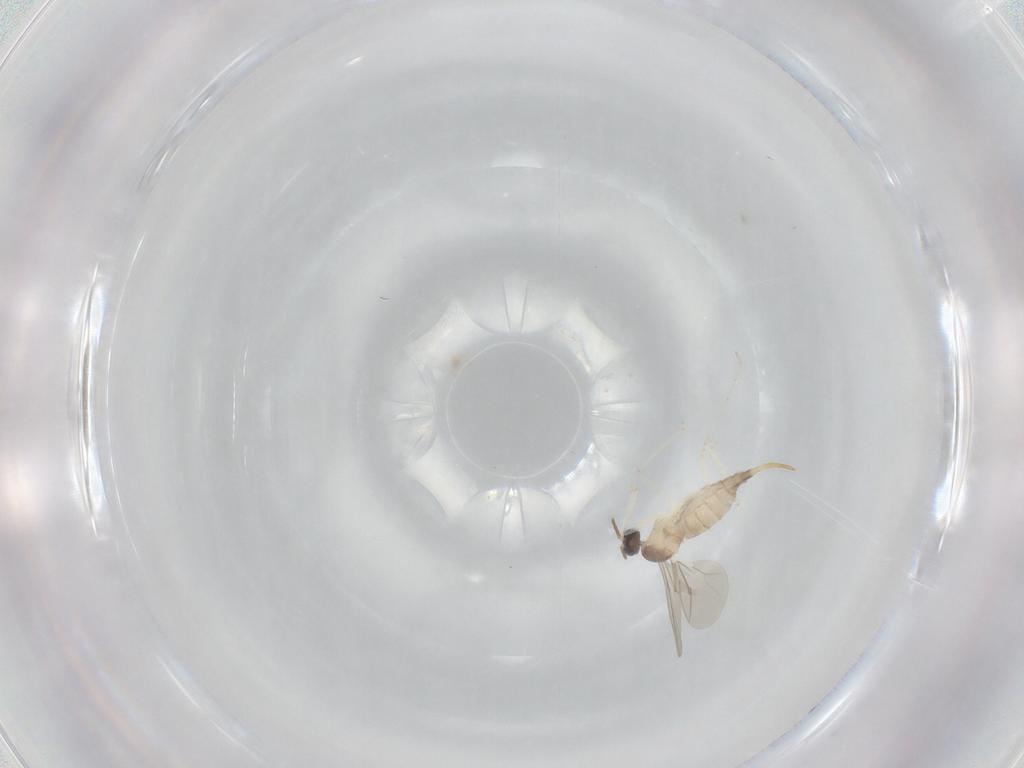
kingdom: Animalia
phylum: Arthropoda
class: Insecta
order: Diptera
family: Cecidomyiidae
